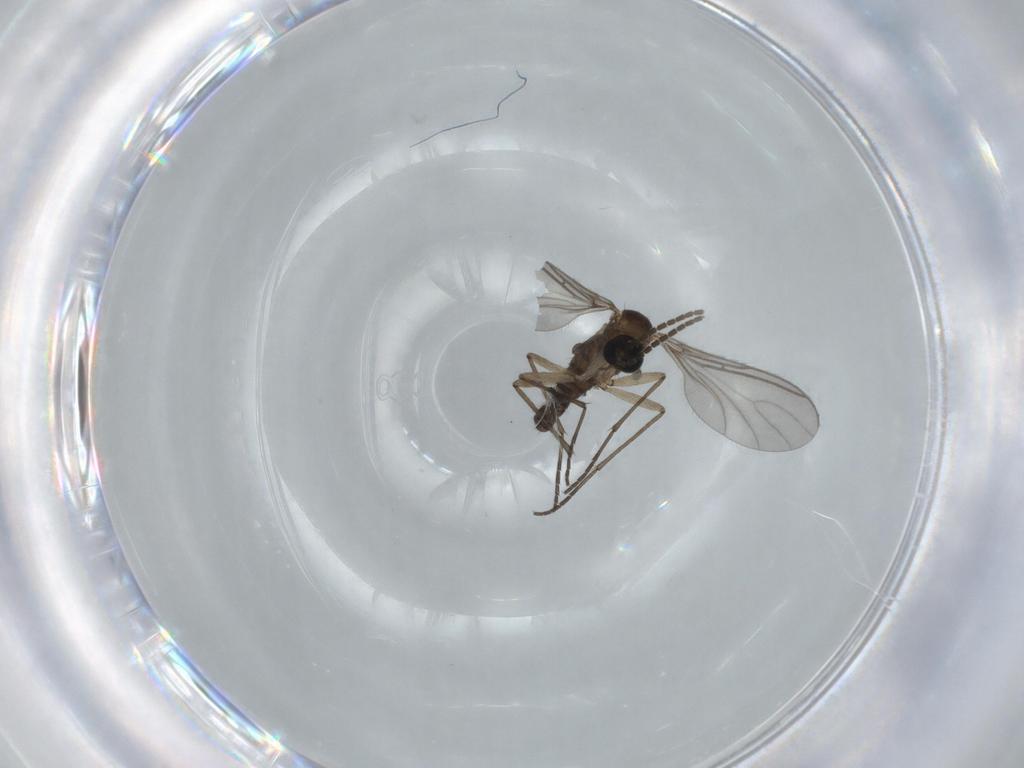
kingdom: Animalia
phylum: Arthropoda
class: Insecta
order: Diptera
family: Sciaridae
